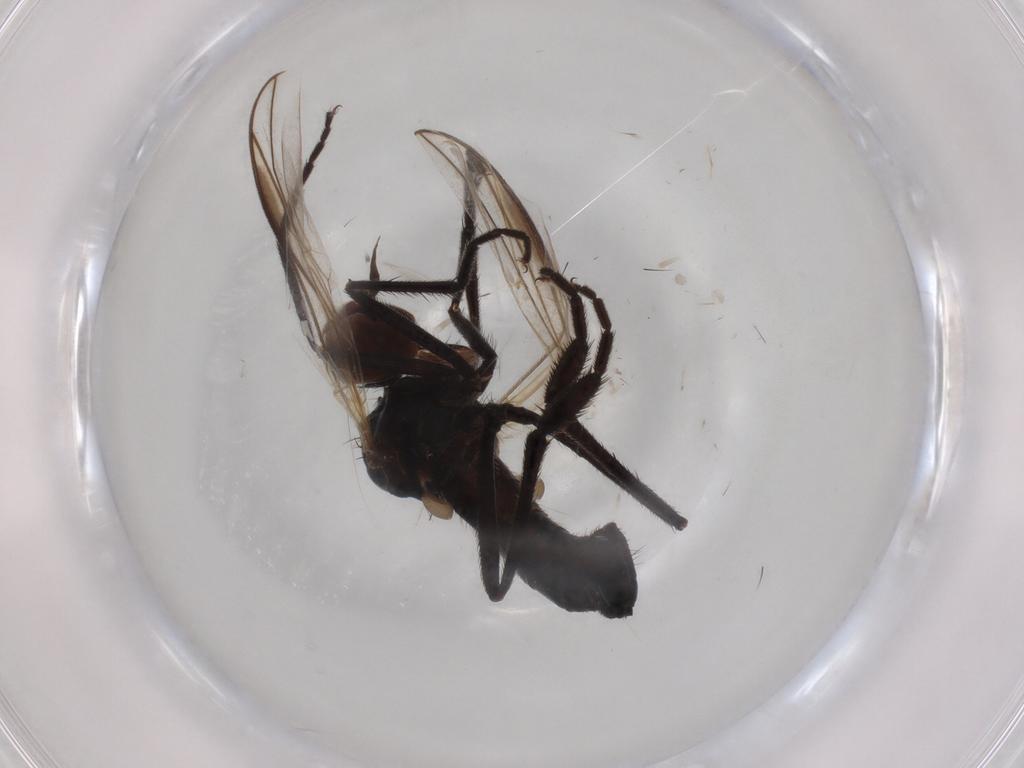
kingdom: Animalia
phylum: Arthropoda
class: Insecta
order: Diptera
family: Empididae
